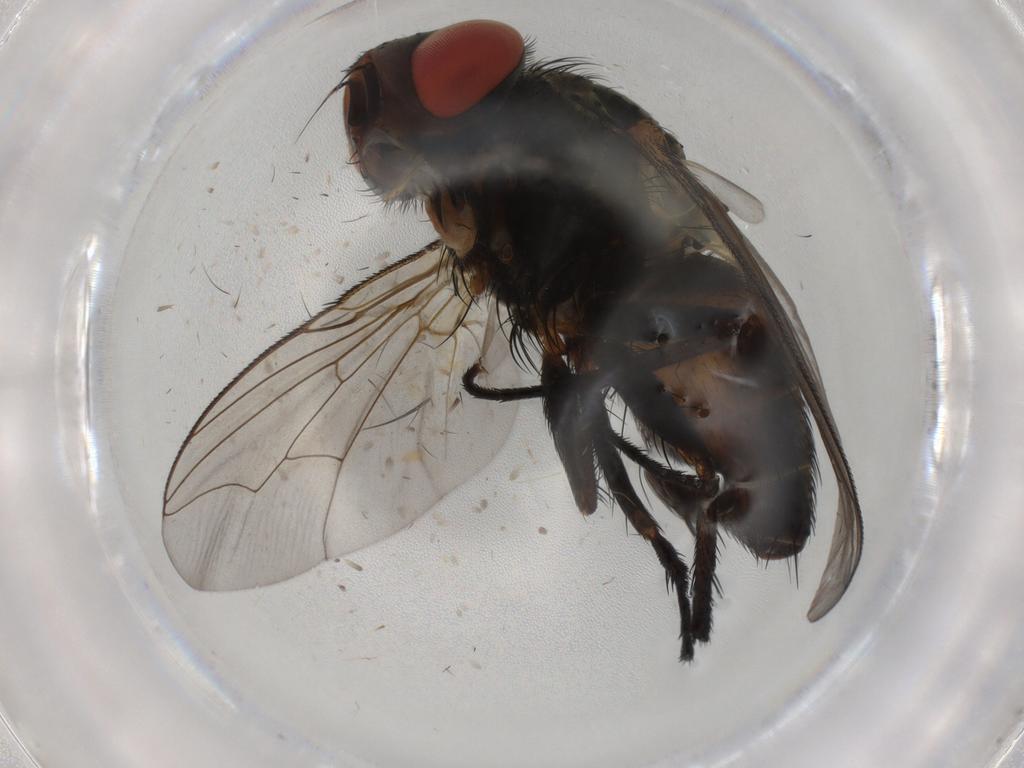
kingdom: Animalia
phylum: Arthropoda
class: Insecta
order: Diptera
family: Sarcophagidae
